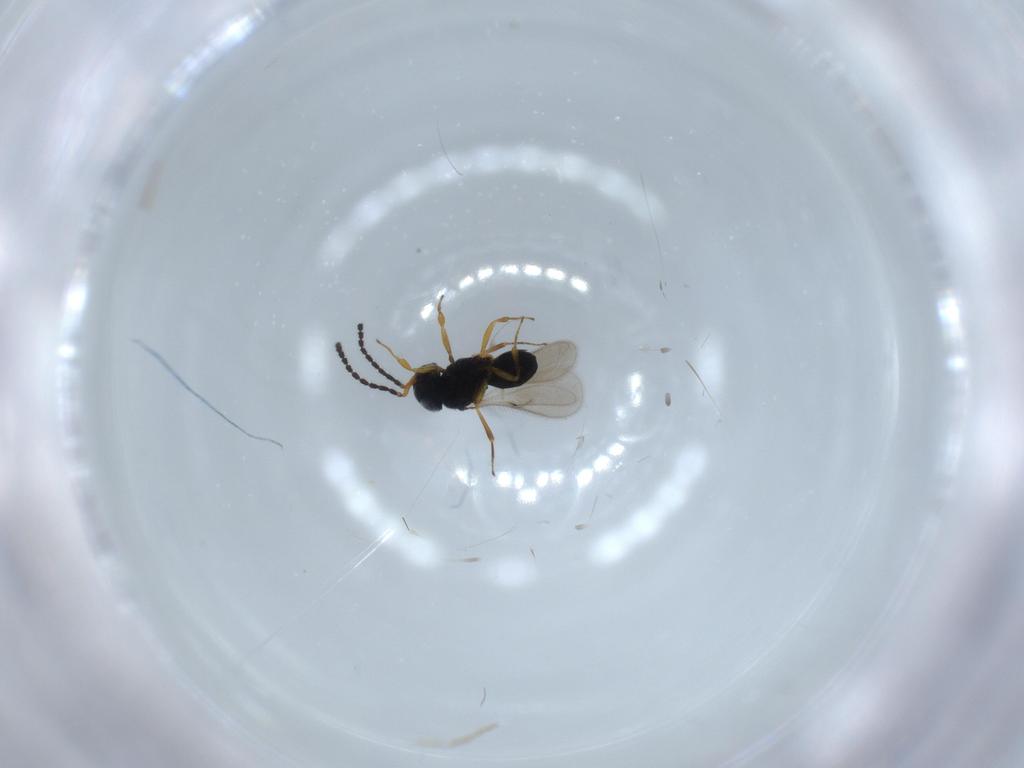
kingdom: Animalia
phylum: Arthropoda
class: Insecta
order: Hymenoptera
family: Scelionidae
